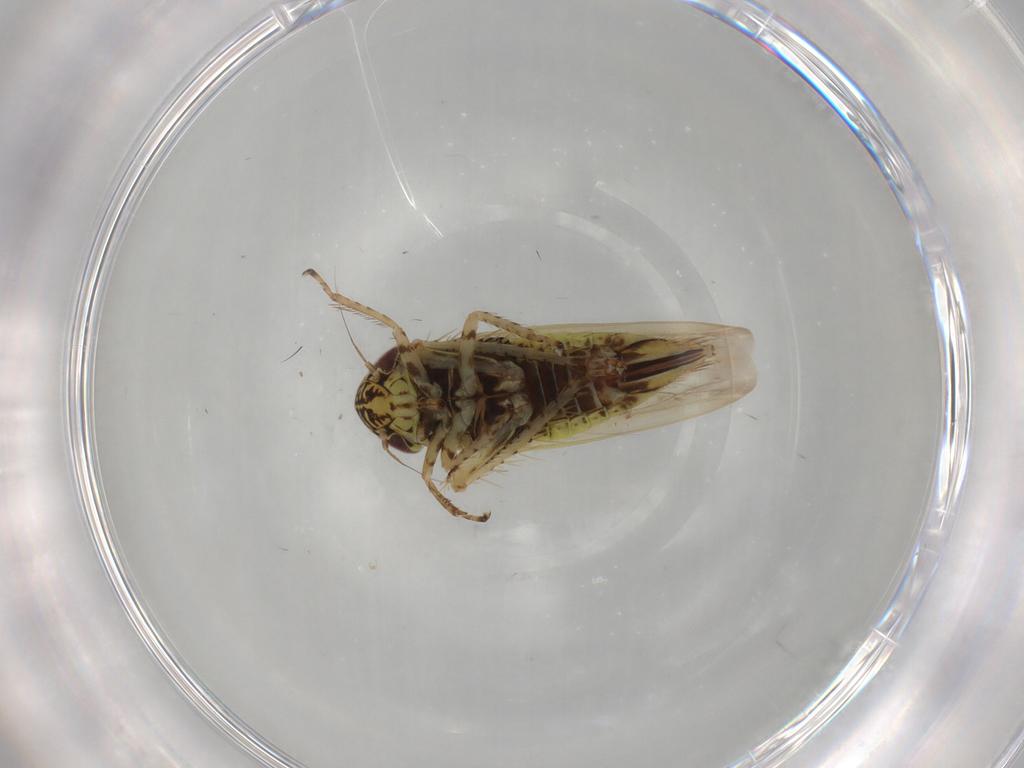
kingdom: Animalia
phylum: Arthropoda
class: Insecta
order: Hemiptera
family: Cicadellidae
